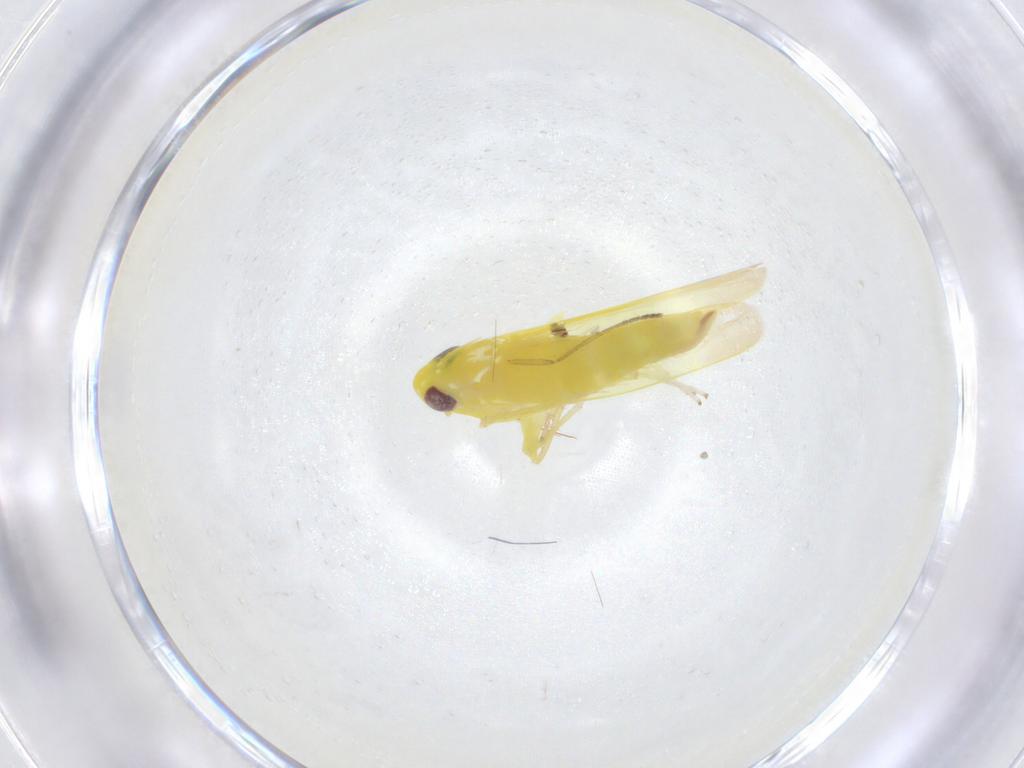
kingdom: Animalia
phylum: Arthropoda
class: Insecta
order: Hemiptera
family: Cicadellidae
